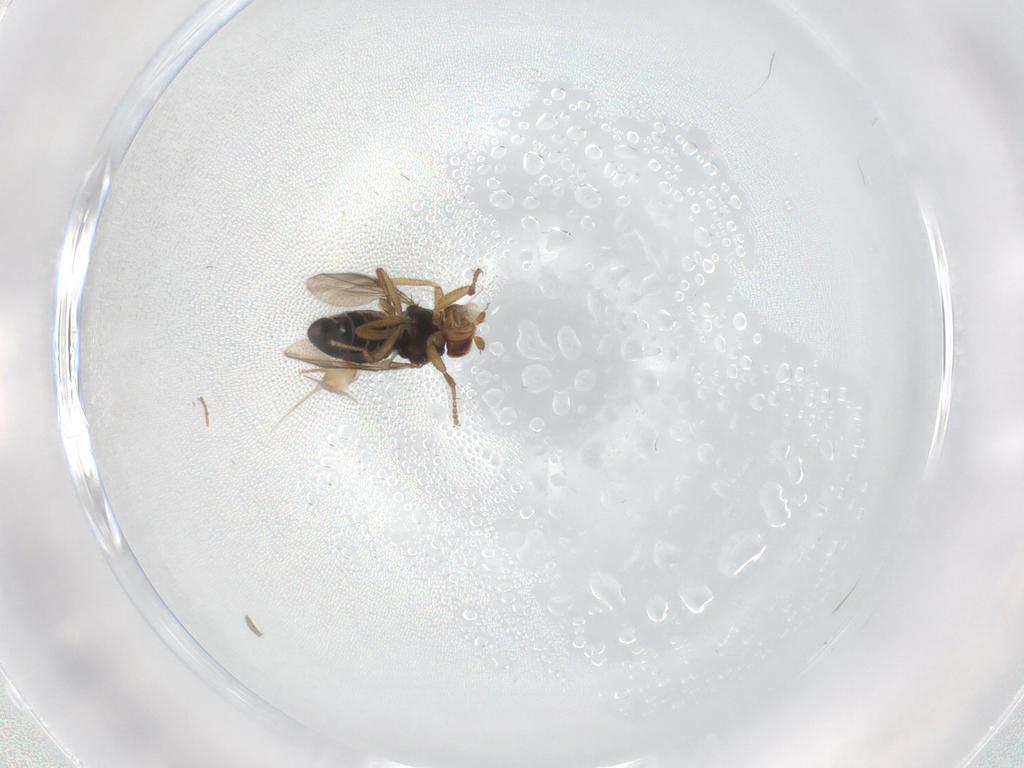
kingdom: Animalia
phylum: Arthropoda
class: Insecta
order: Diptera
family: Sphaeroceridae
